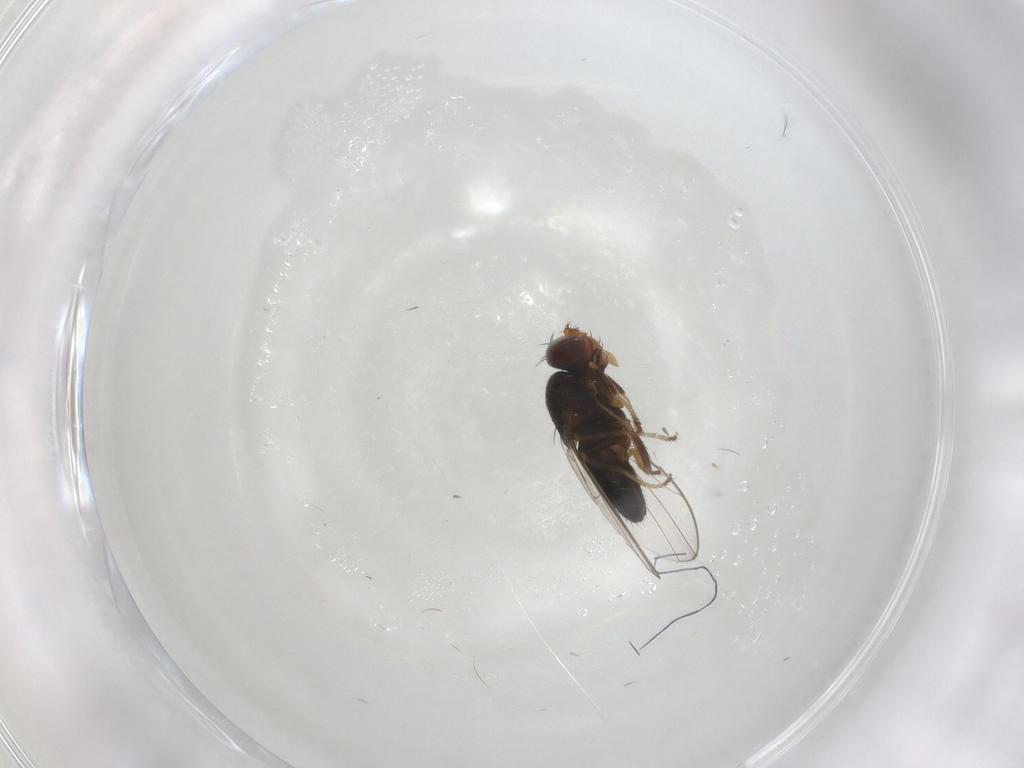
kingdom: Animalia
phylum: Arthropoda
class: Insecta
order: Diptera
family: Ephydridae
